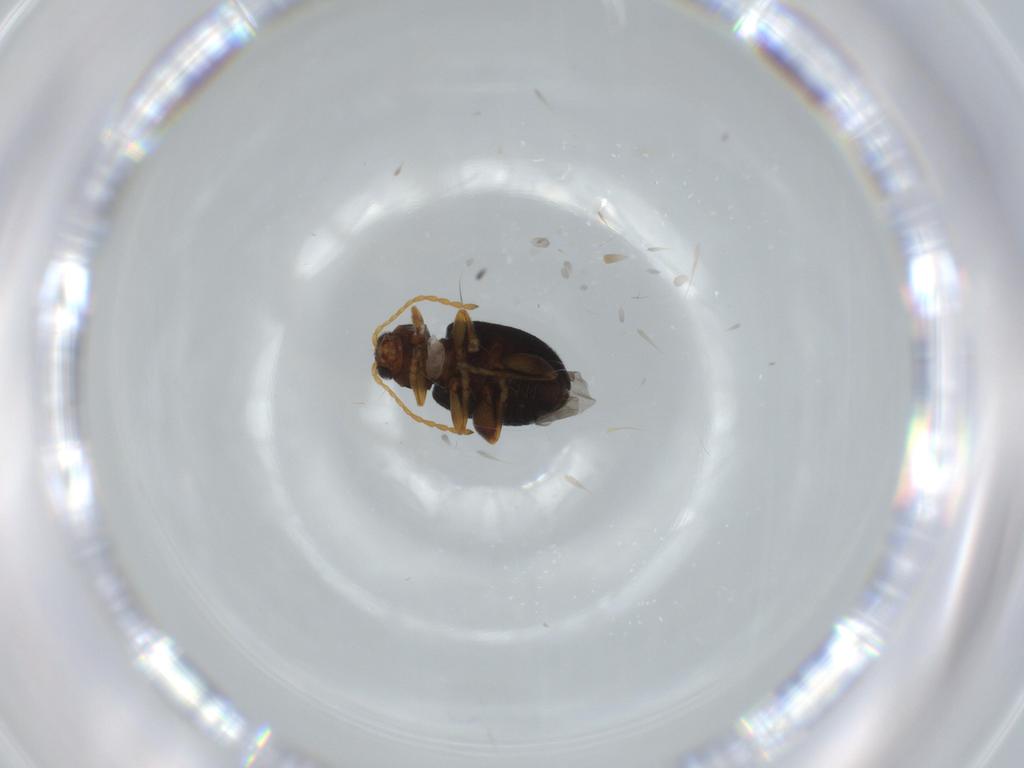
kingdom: Animalia
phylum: Arthropoda
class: Insecta
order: Coleoptera
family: Chrysomelidae
